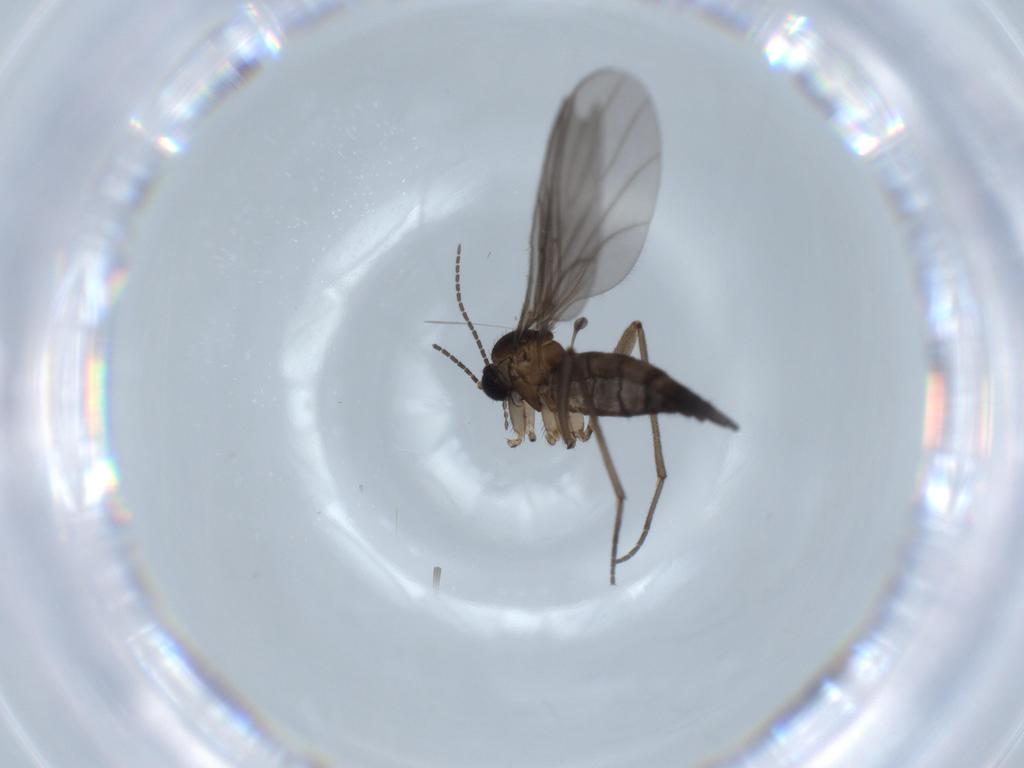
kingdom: Animalia
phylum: Arthropoda
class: Insecta
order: Diptera
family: Sciaridae
